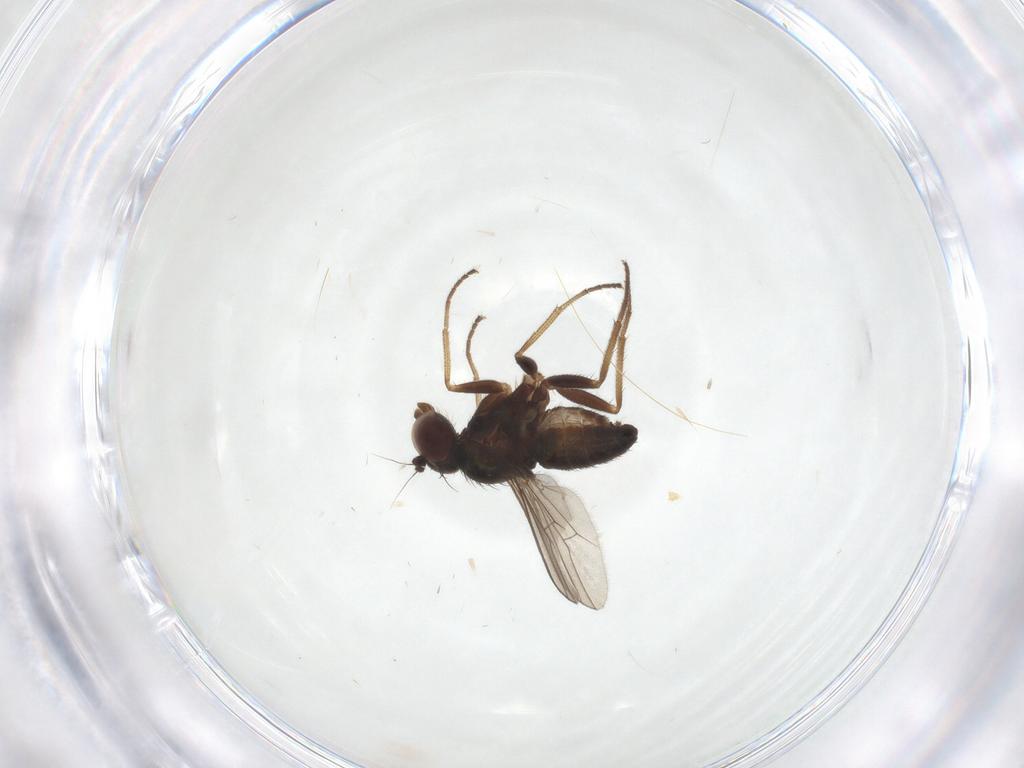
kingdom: Animalia
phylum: Arthropoda
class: Insecta
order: Diptera
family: Dolichopodidae
